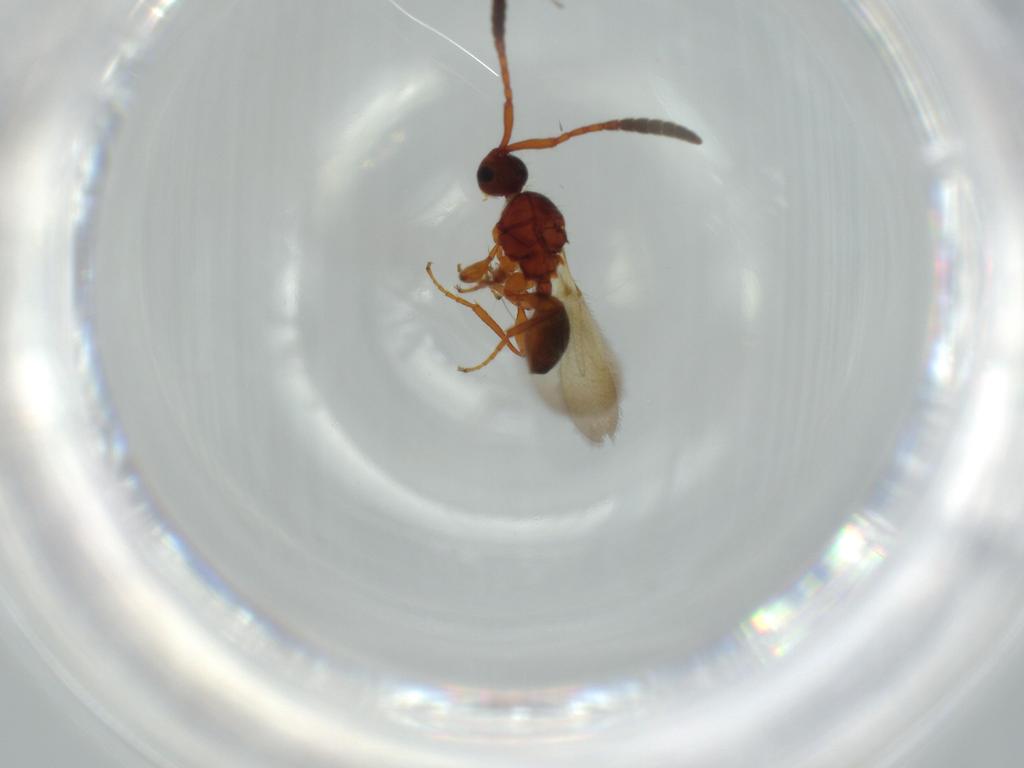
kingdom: Animalia
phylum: Arthropoda
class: Insecta
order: Hymenoptera
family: Diapriidae
